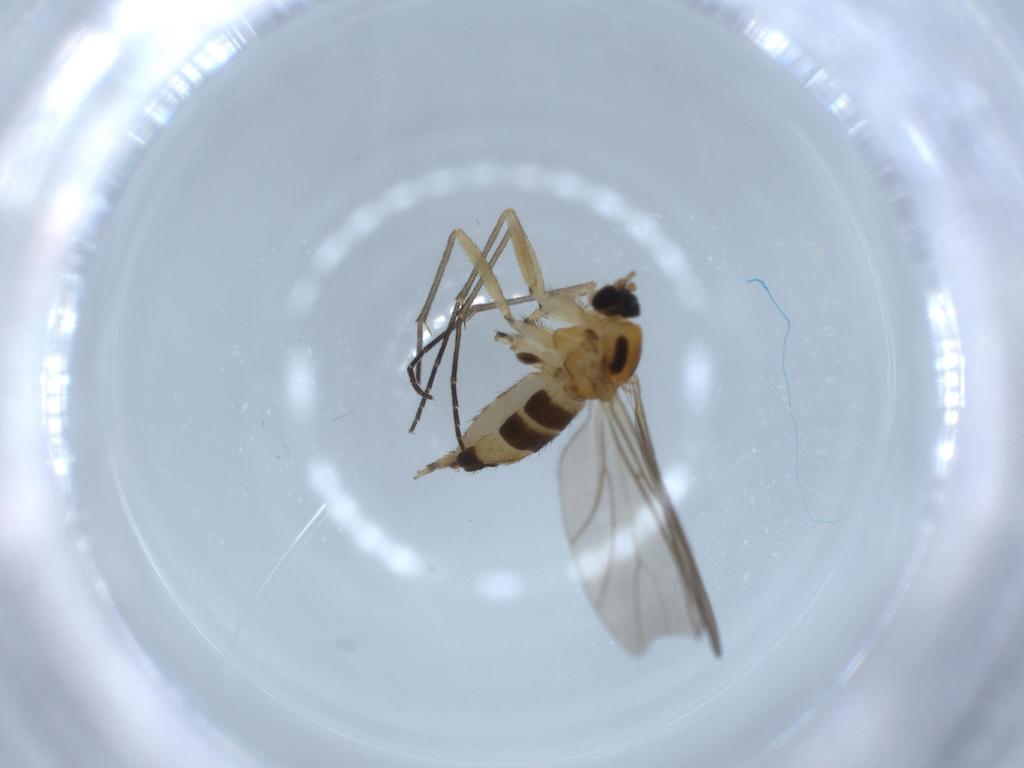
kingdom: Animalia
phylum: Arthropoda
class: Insecta
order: Diptera
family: Sciaridae
